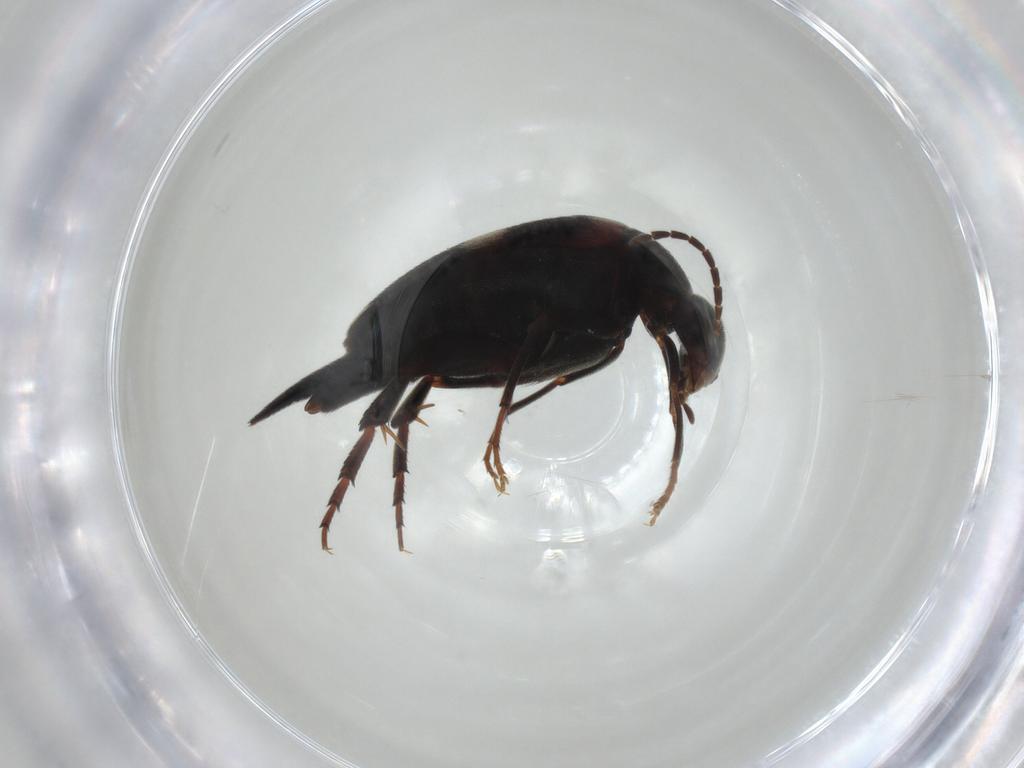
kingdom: Animalia
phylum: Arthropoda
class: Insecta
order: Coleoptera
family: Mordellidae
